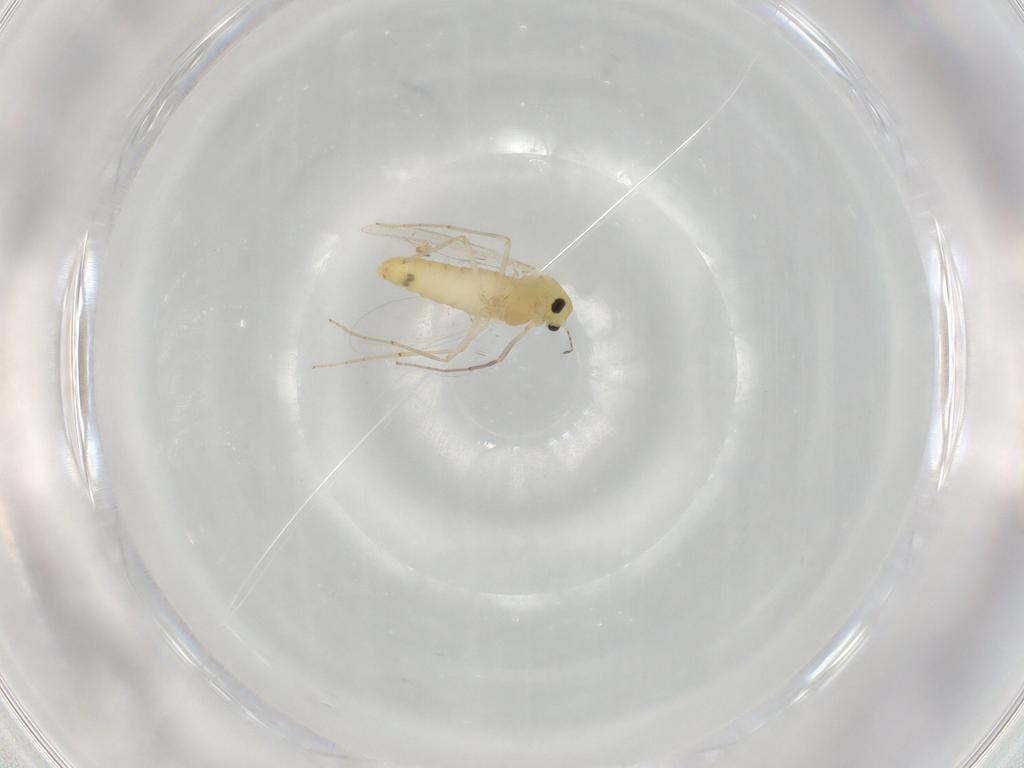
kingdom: Animalia
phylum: Arthropoda
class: Insecta
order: Diptera
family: Chironomidae
